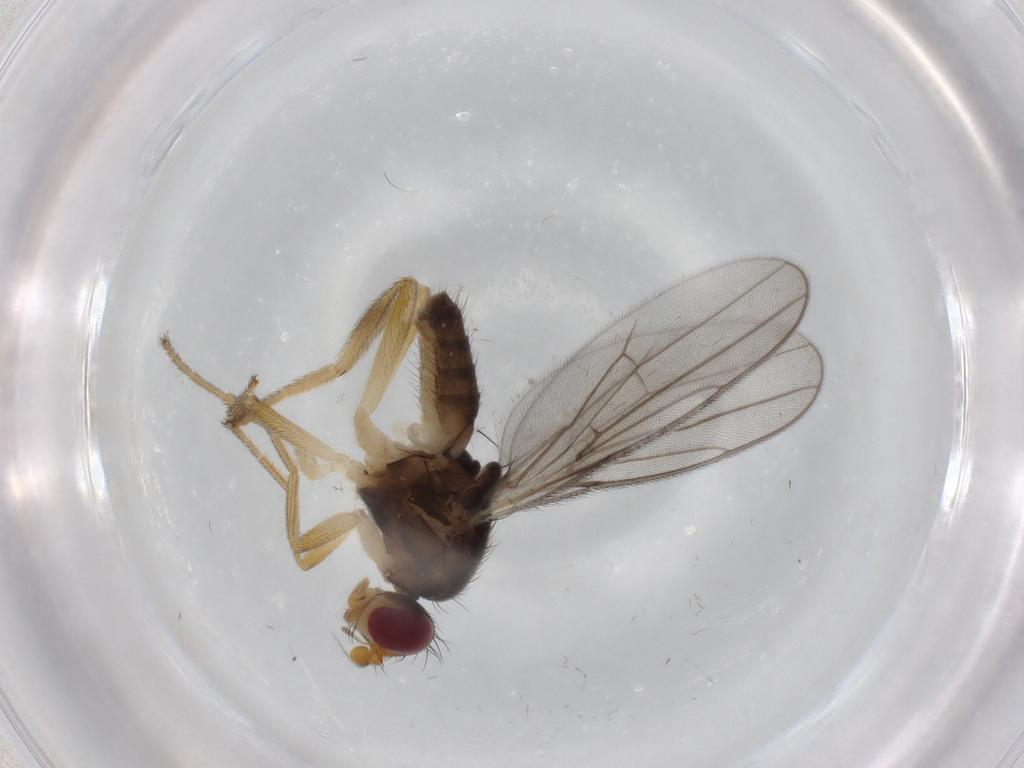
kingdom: Animalia
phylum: Arthropoda
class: Insecta
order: Diptera
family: Chloropidae
